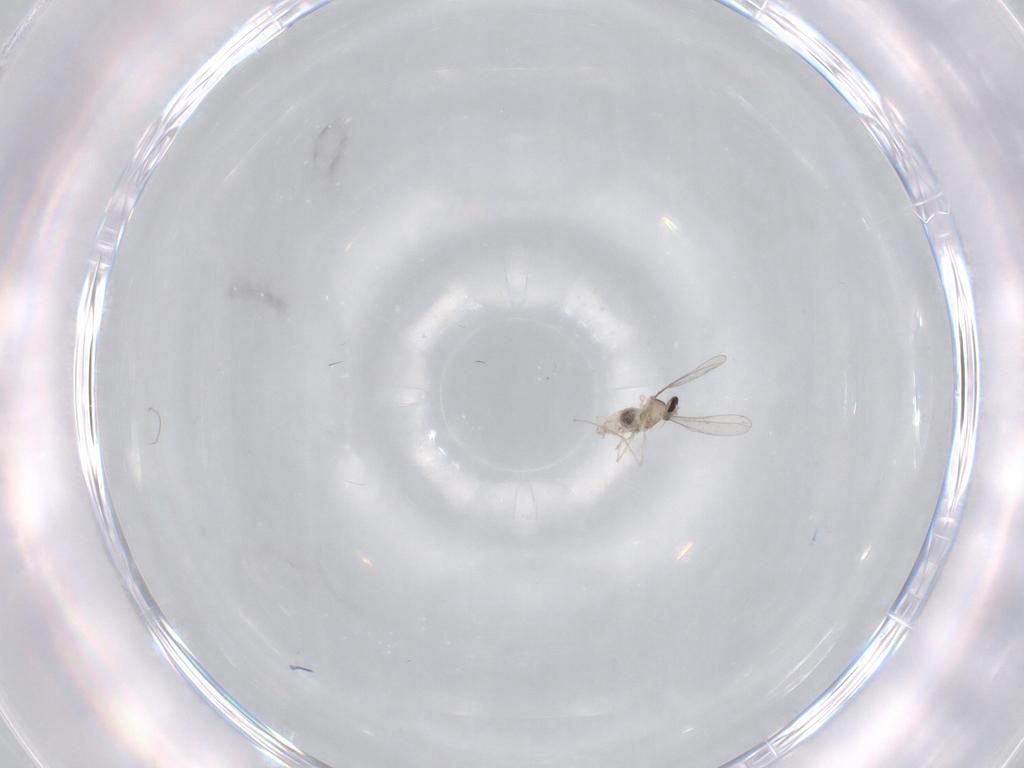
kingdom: Animalia
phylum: Arthropoda
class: Insecta
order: Diptera
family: Cecidomyiidae
